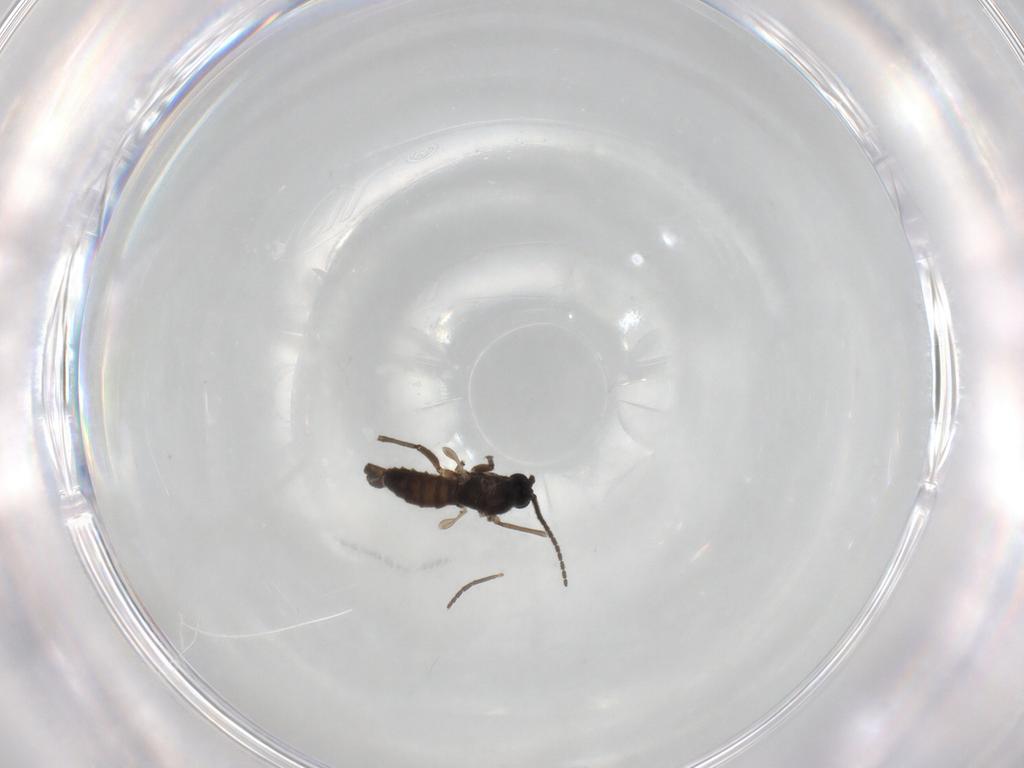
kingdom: Animalia
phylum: Arthropoda
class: Insecta
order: Diptera
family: Sciaridae
